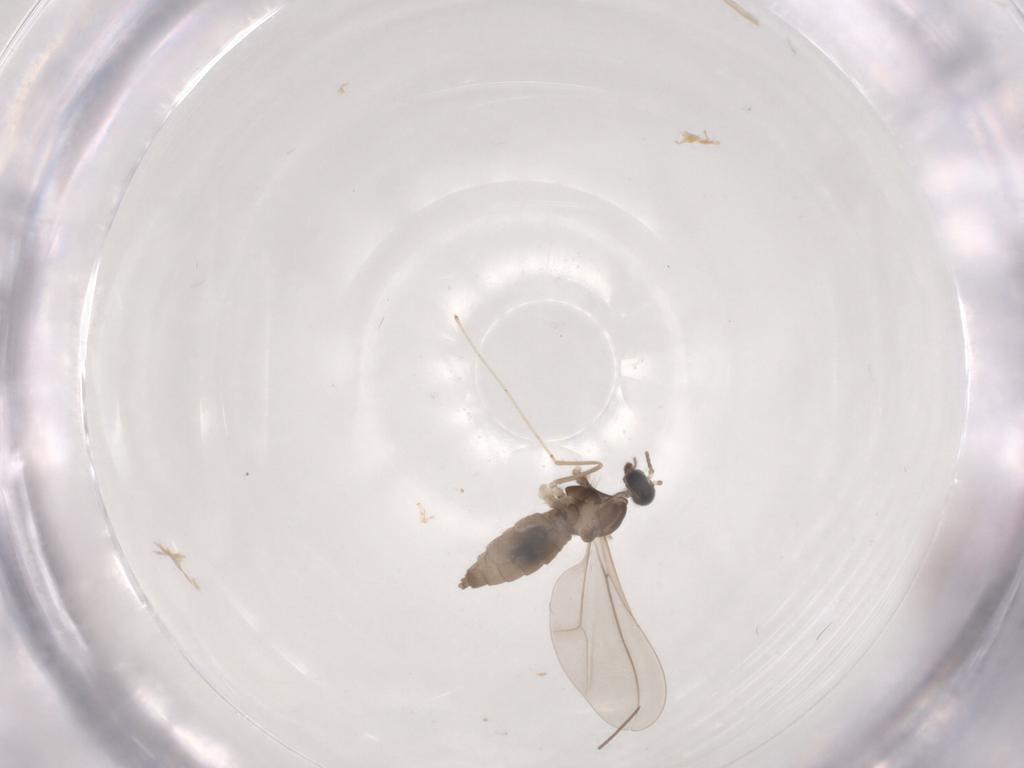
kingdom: Animalia
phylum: Arthropoda
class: Insecta
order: Diptera
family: Cecidomyiidae
